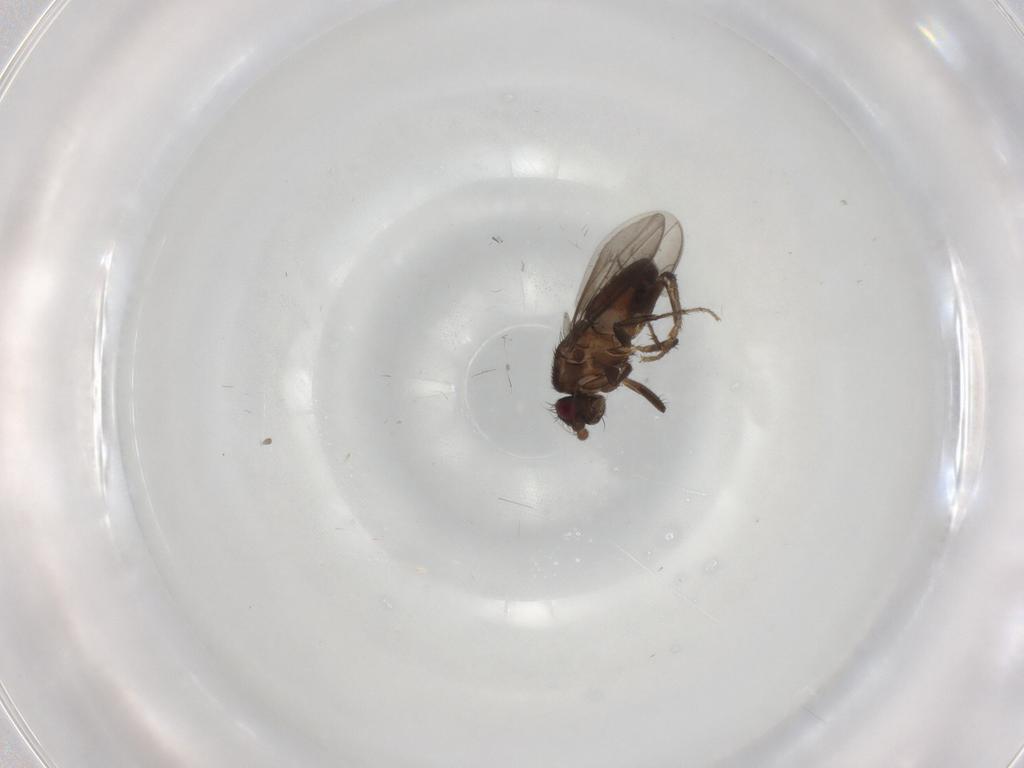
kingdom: Animalia
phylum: Arthropoda
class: Insecta
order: Diptera
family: Sphaeroceridae
